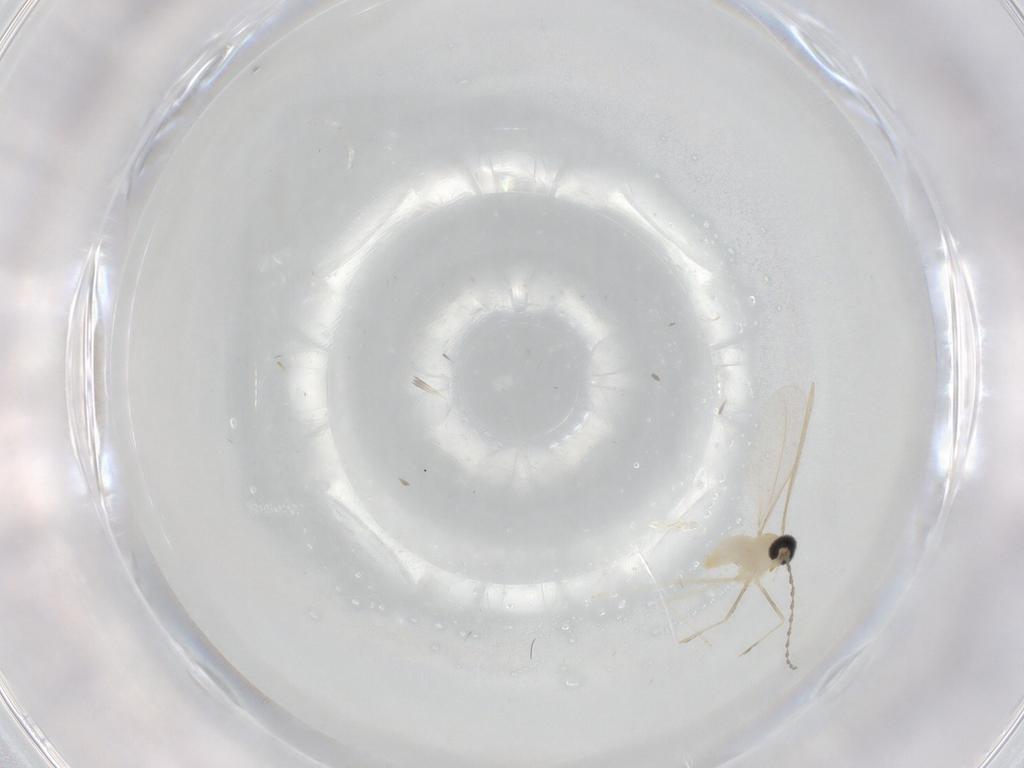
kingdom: Animalia
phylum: Arthropoda
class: Insecta
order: Diptera
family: Cecidomyiidae
